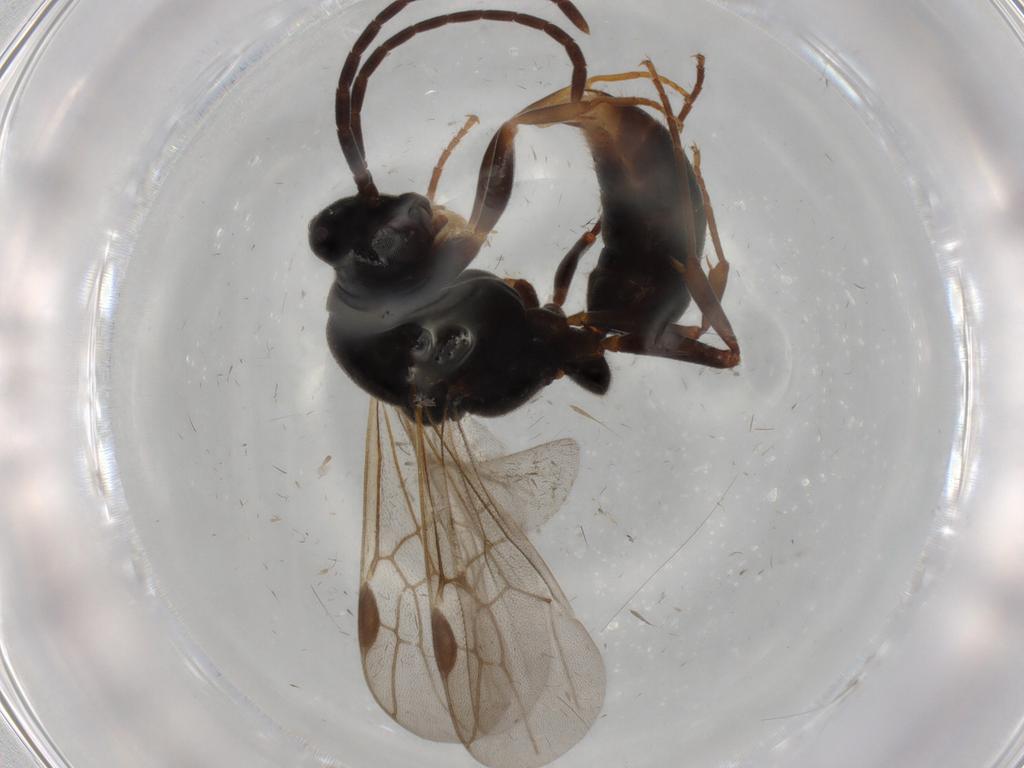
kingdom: Animalia
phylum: Arthropoda
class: Insecta
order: Hymenoptera
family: Formicidae
